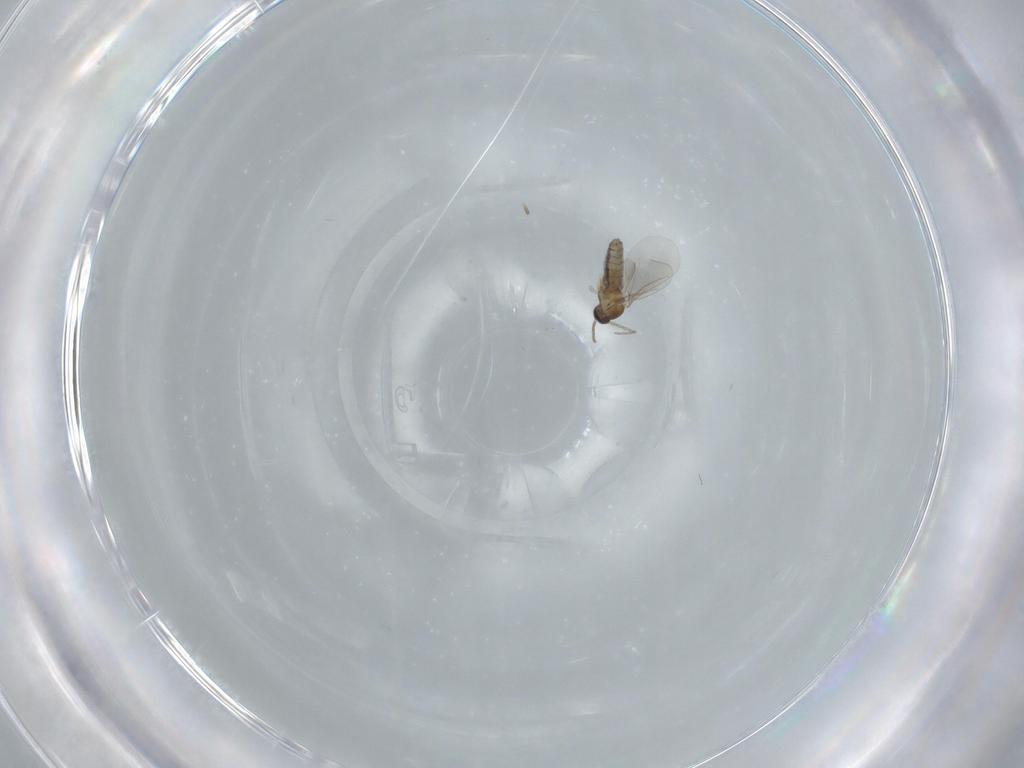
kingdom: Animalia
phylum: Arthropoda
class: Insecta
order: Diptera
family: Cecidomyiidae
